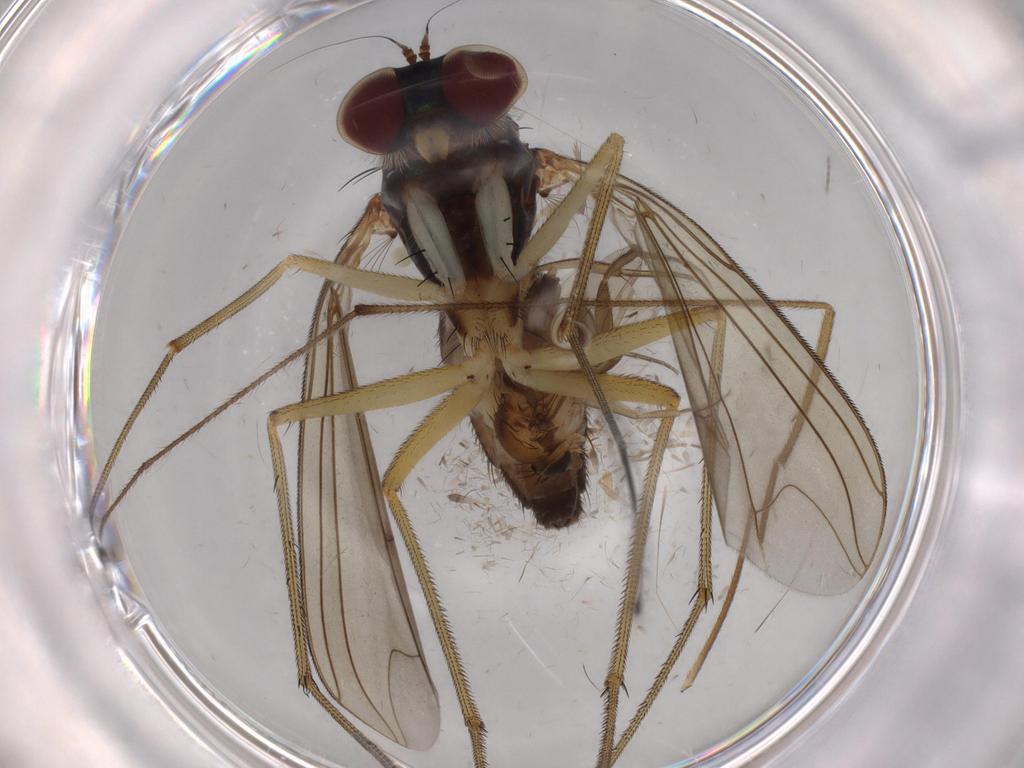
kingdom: Animalia
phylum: Arthropoda
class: Insecta
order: Diptera
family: Dolichopodidae
